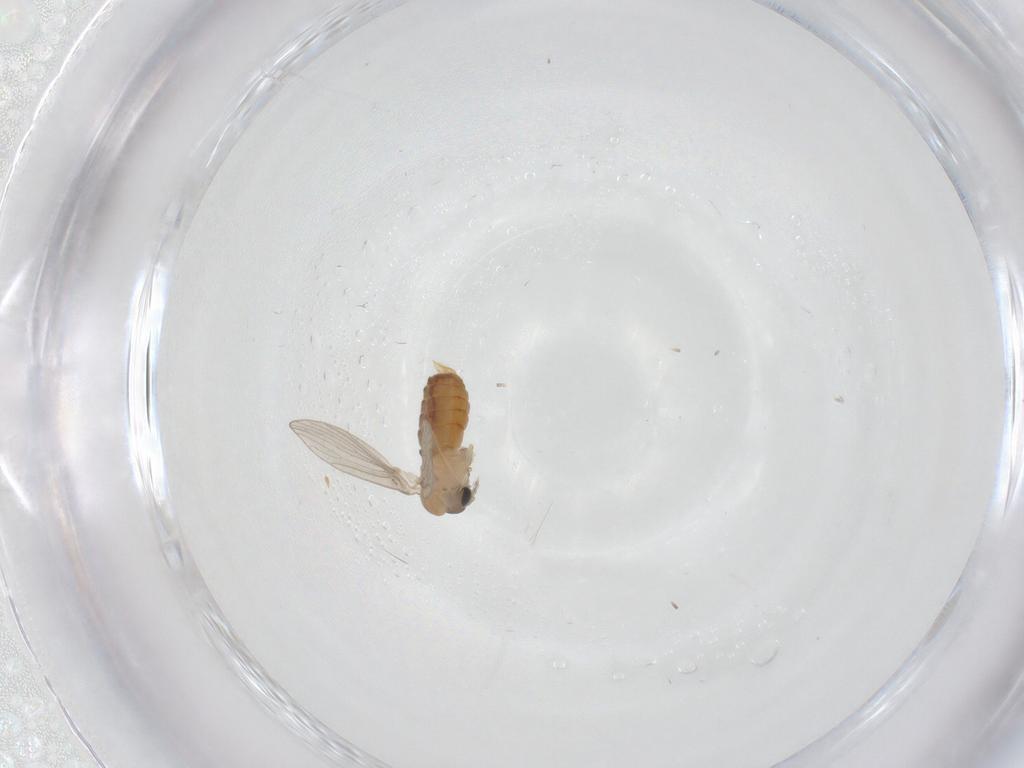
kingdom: Animalia
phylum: Arthropoda
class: Insecta
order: Diptera
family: Psychodidae
